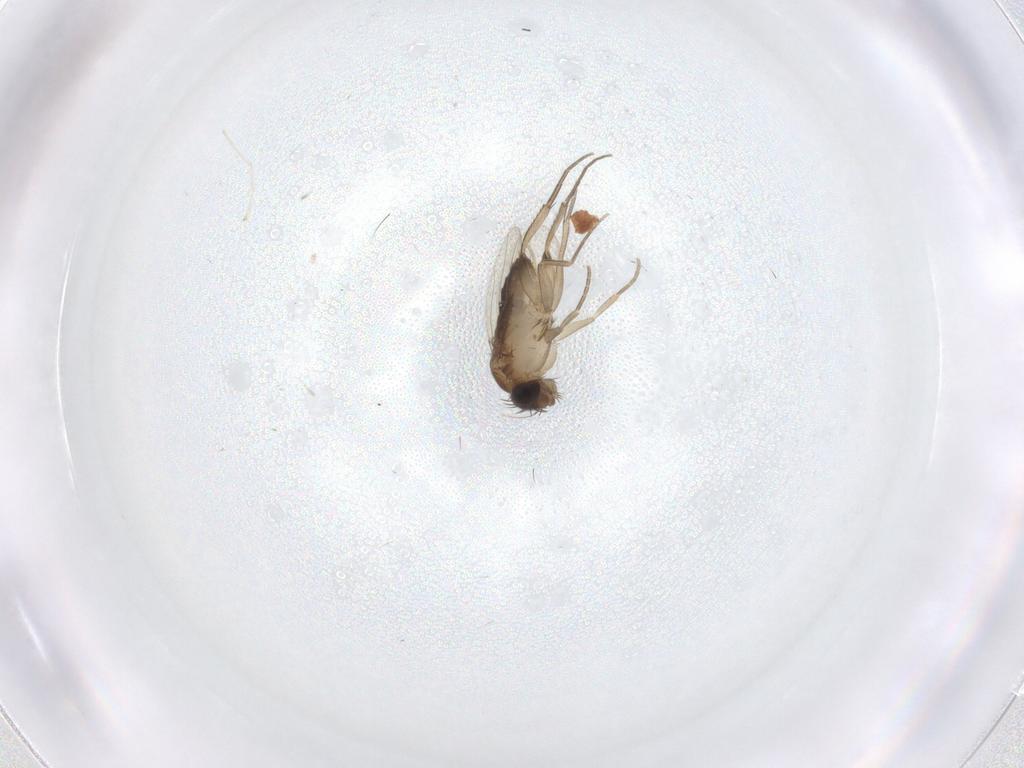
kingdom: Animalia
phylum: Arthropoda
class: Insecta
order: Diptera
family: Phoridae
